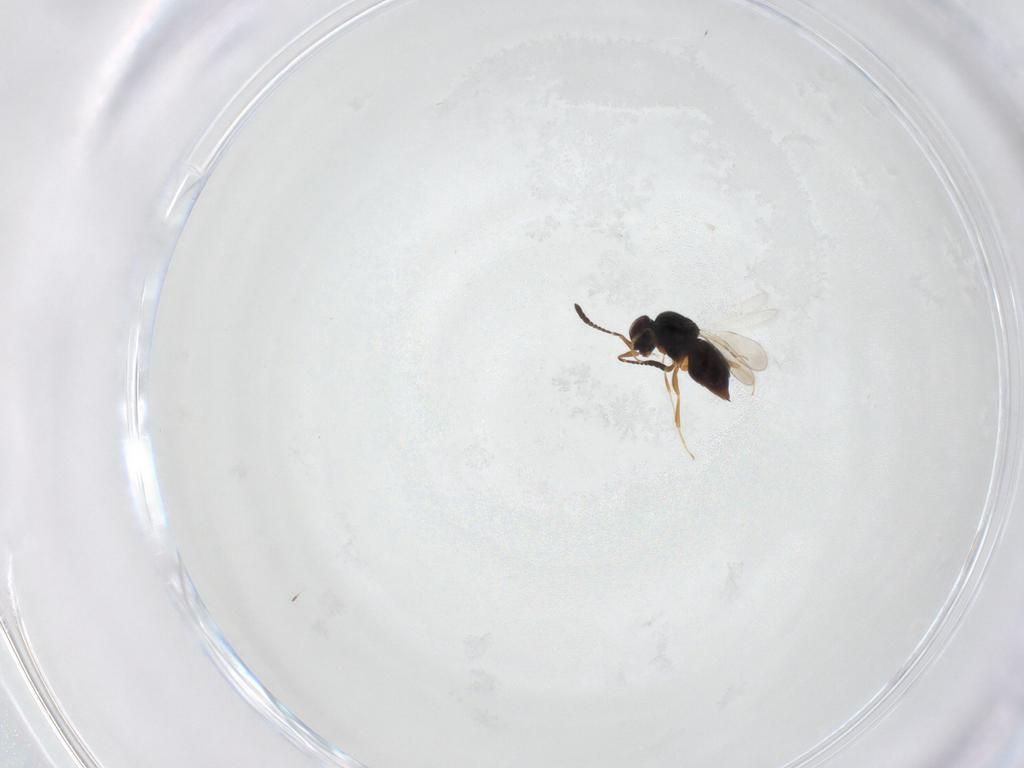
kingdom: Animalia
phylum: Arthropoda
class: Insecta
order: Hymenoptera
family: Ceraphronidae
